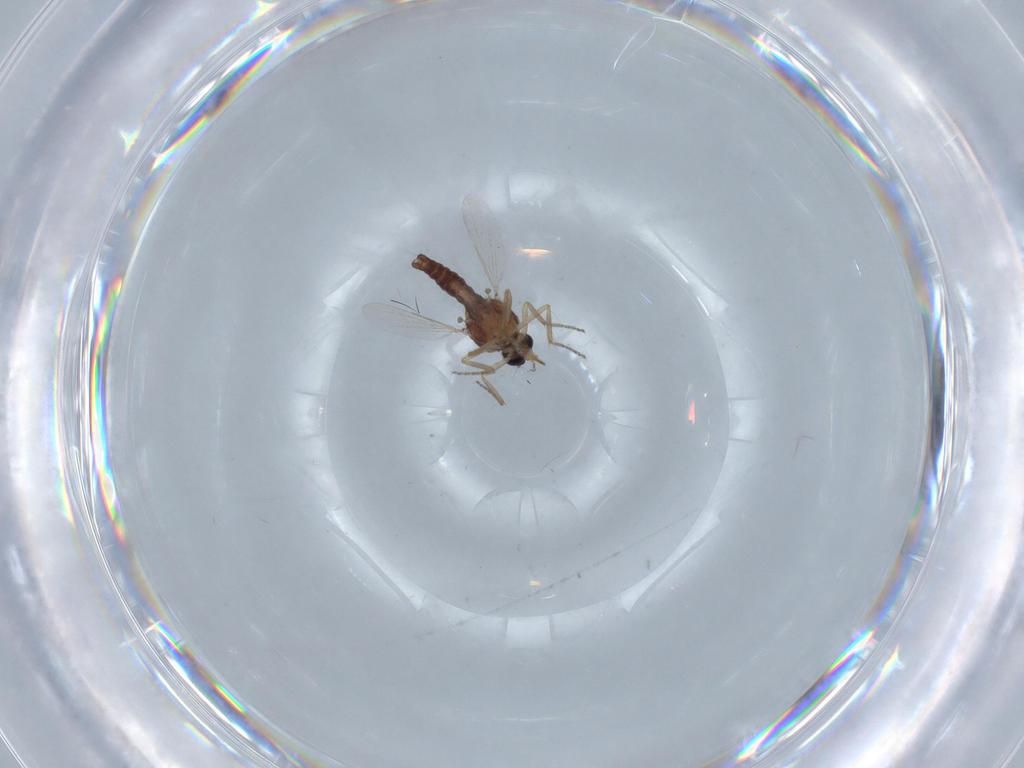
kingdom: Animalia
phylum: Arthropoda
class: Insecta
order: Diptera
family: Ceratopogonidae
